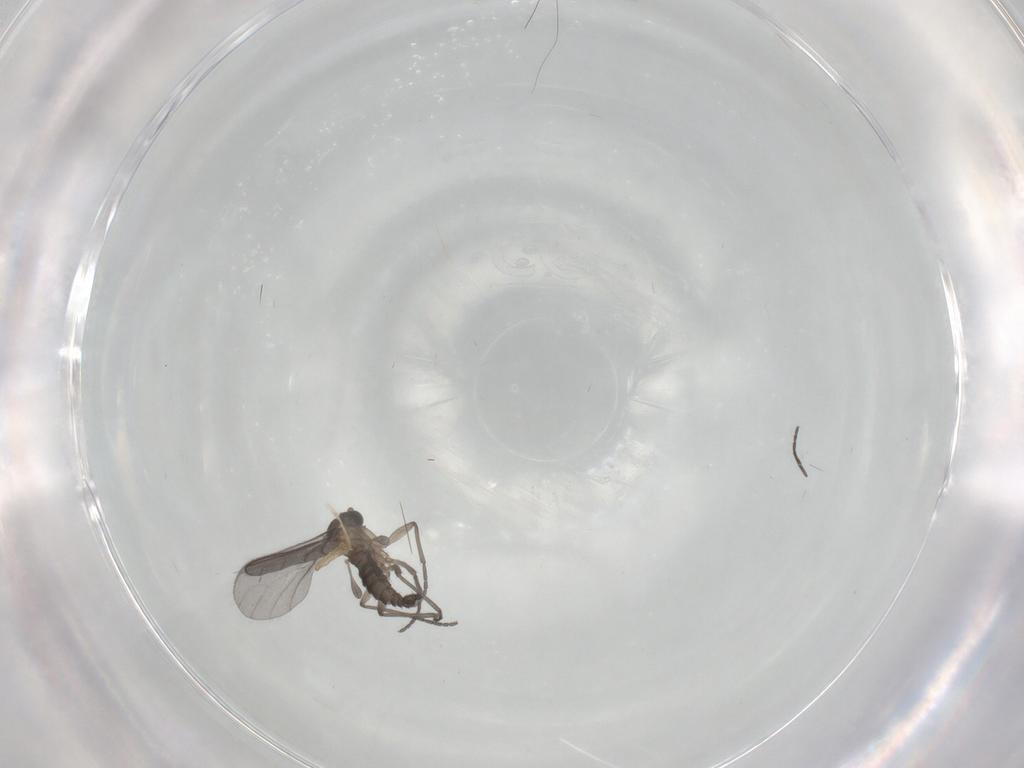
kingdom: Animalia
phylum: Arthropoda
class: Insecta
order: Diptera
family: Sciaridae
